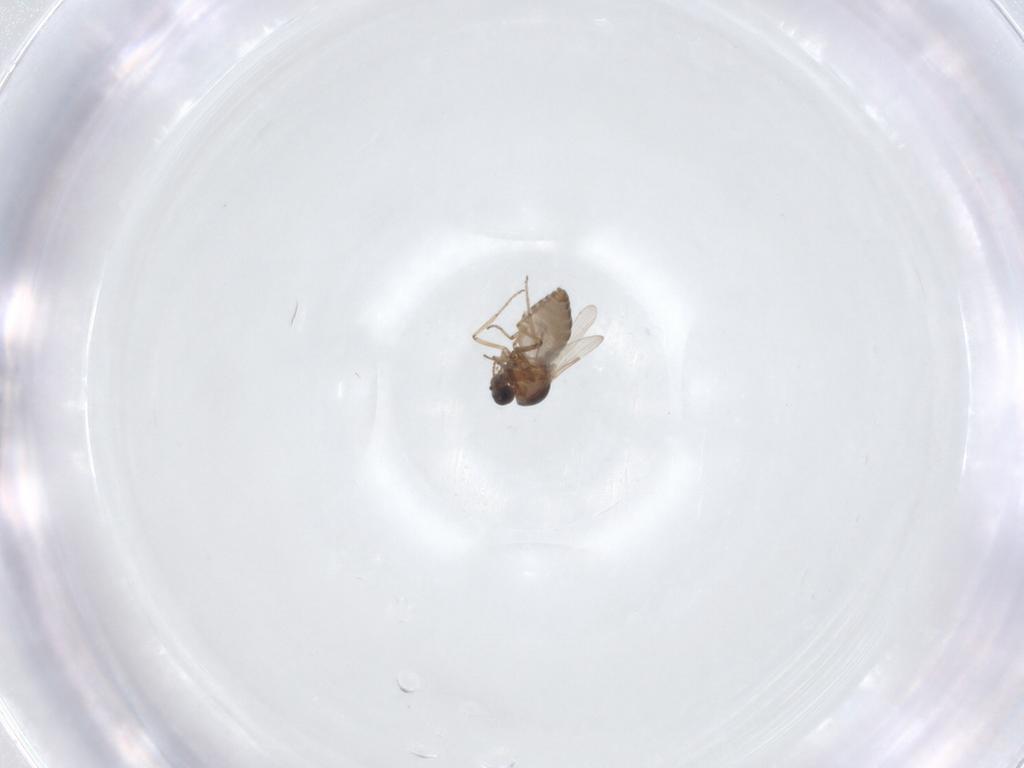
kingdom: Animalia
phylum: Arthropoda
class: Insecta
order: Diptera
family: Ceratopogonidae
